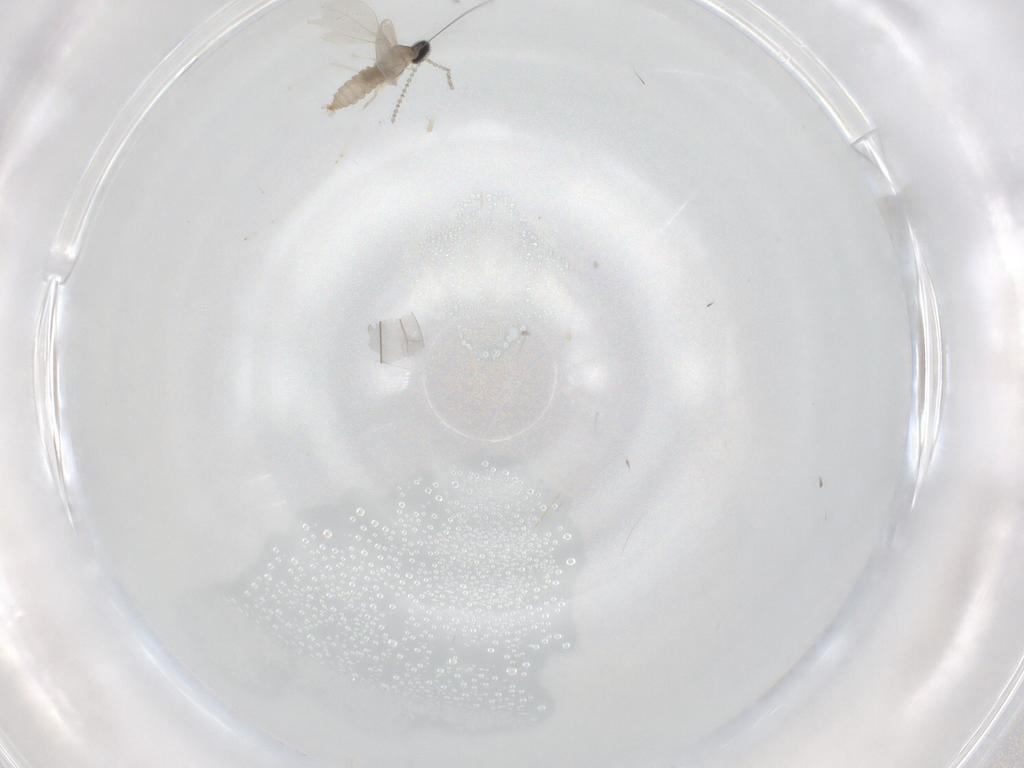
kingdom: Animalia
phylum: Arthropoda
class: Insecta
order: Diptera
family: Cecidomyiidae
